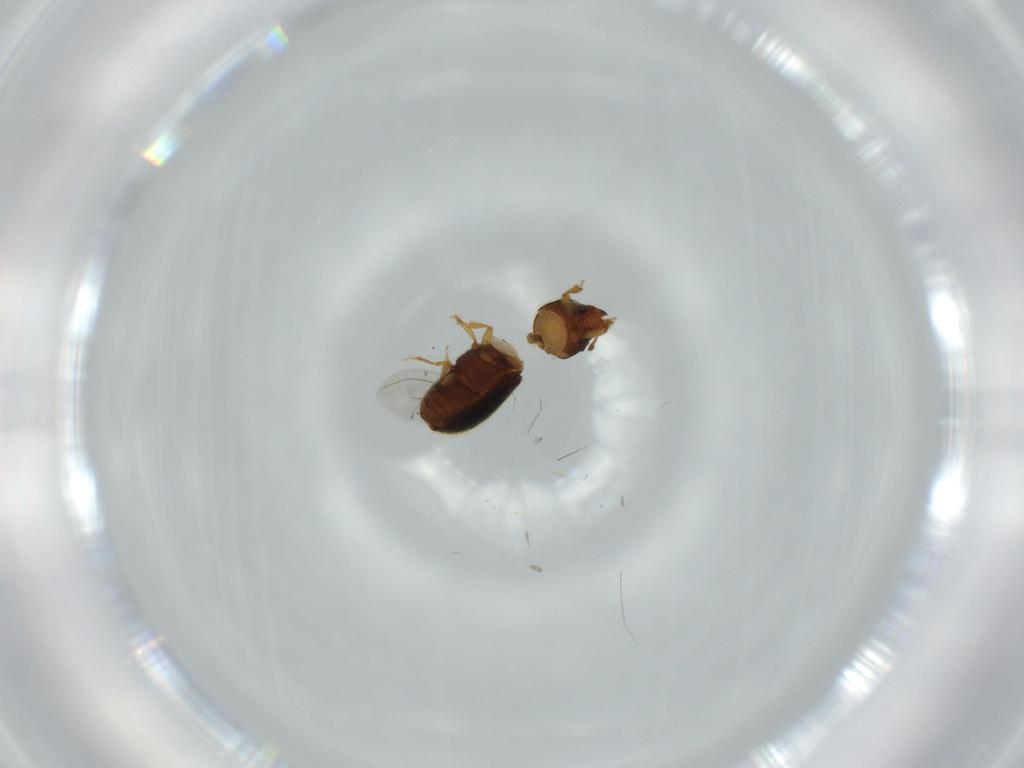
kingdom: Animalia
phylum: Arthropoda
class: Insecta
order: Coleoptera
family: Curculionidae
